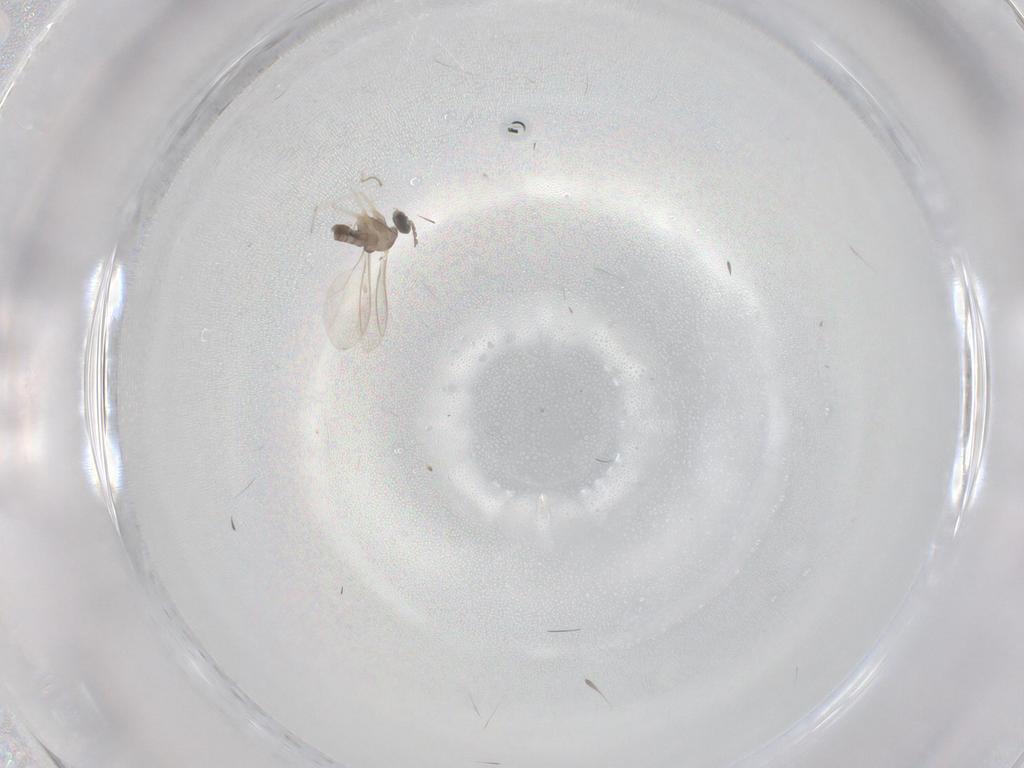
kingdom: Animalia
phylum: Arthropoda
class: Insecta
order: Diptera
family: Cecidomyiidae
